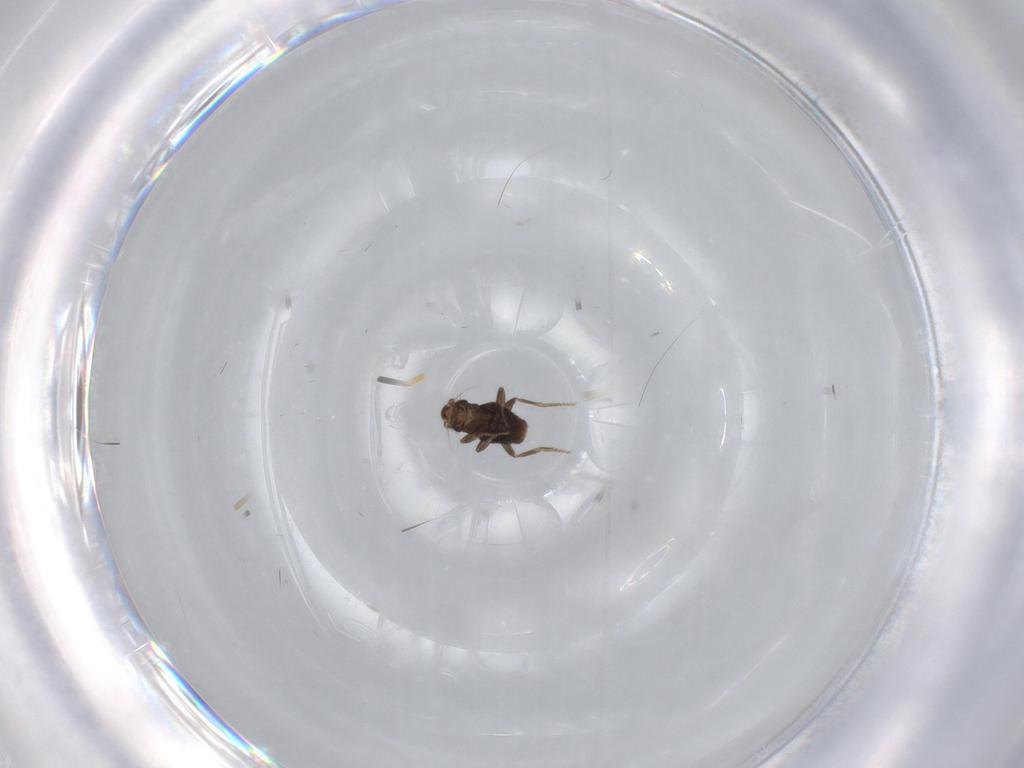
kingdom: Animalia
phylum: Arthropoda
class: Insecta
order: Diptera
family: Phoridae
